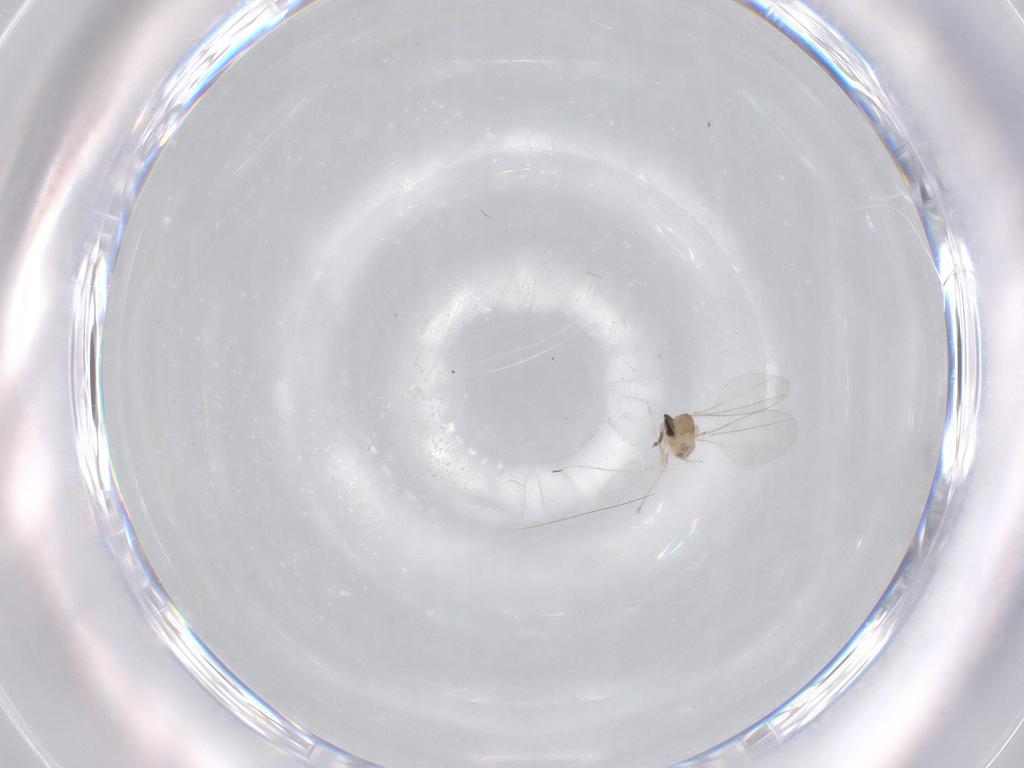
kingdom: Animalia
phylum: Arthropoda
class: Insecta
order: Diptera
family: Cecidomyiidae
